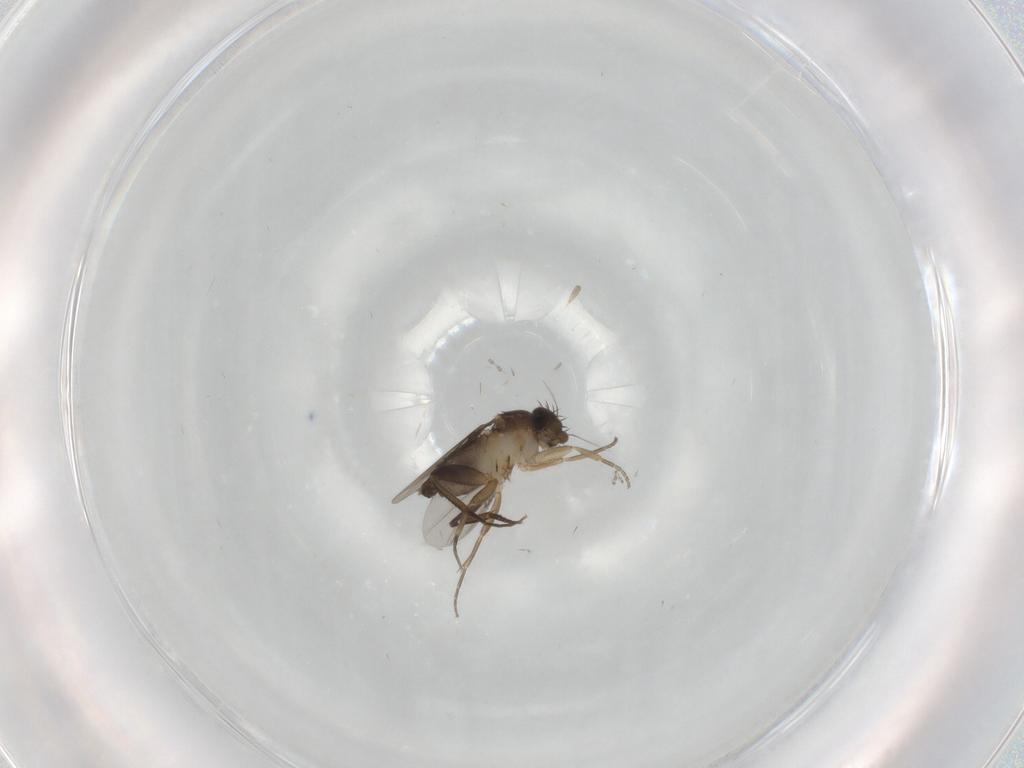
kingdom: Animalia
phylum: Arthropoda
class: Insecta
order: Diptera
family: Phoridae
